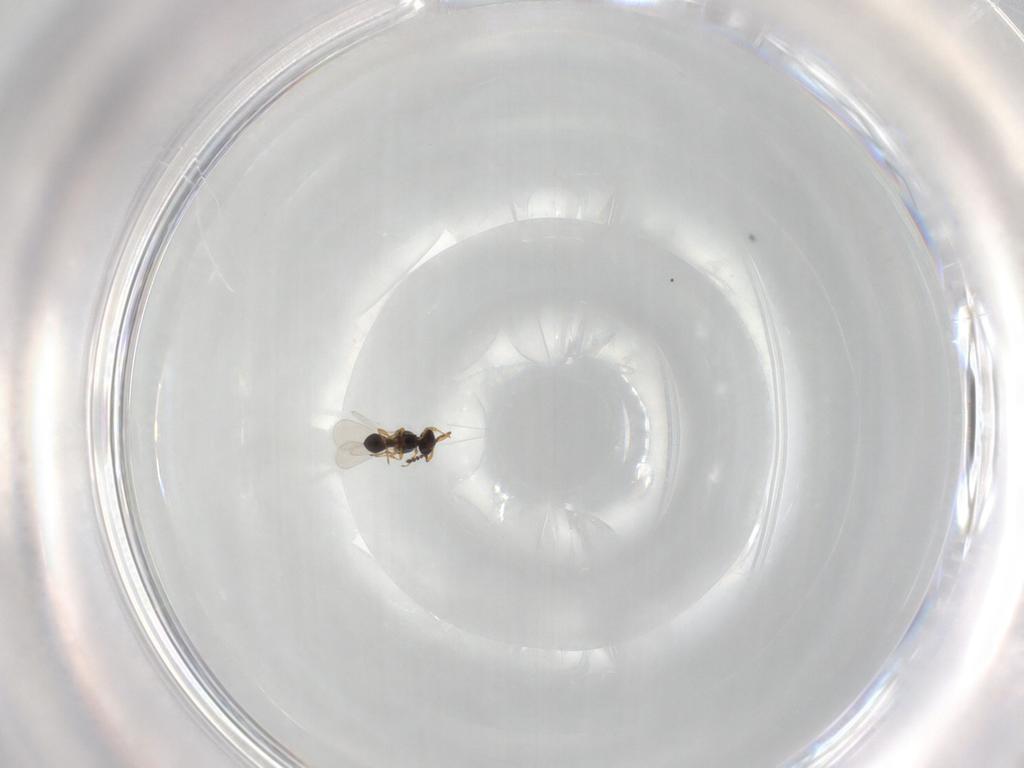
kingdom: Animalia
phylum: Arthropoda
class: Insecta
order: Hymenoptera
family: Platygastridae
